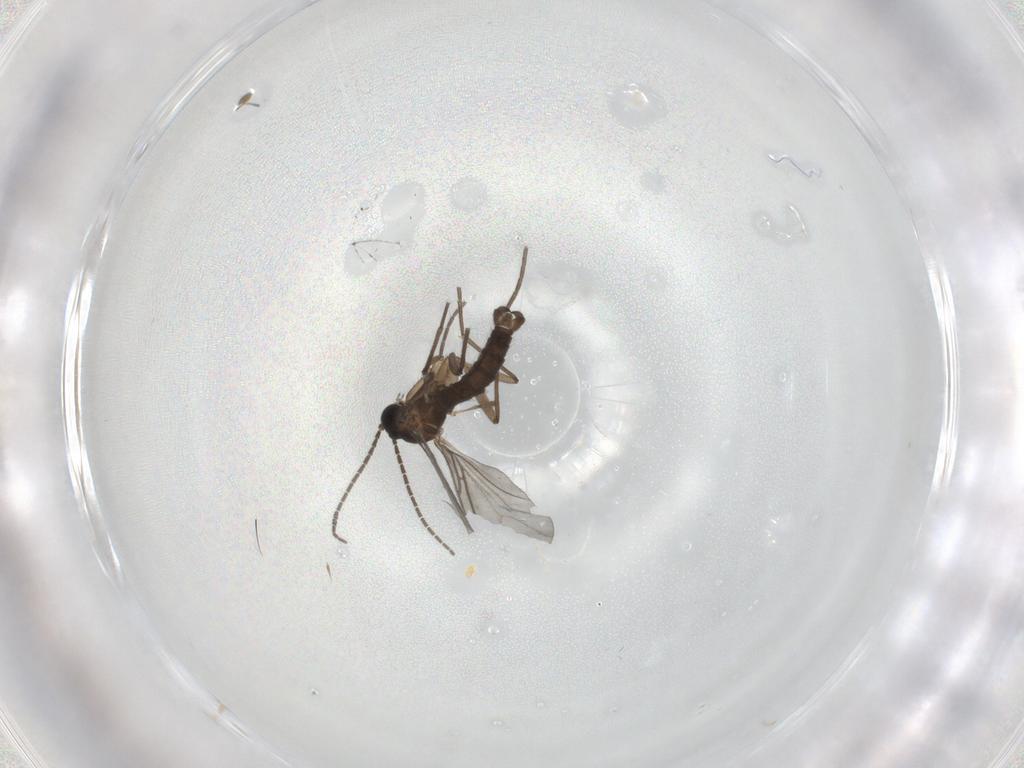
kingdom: Animalia
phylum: Arthropoda
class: Insecta
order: Diptera
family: Sciaridae
